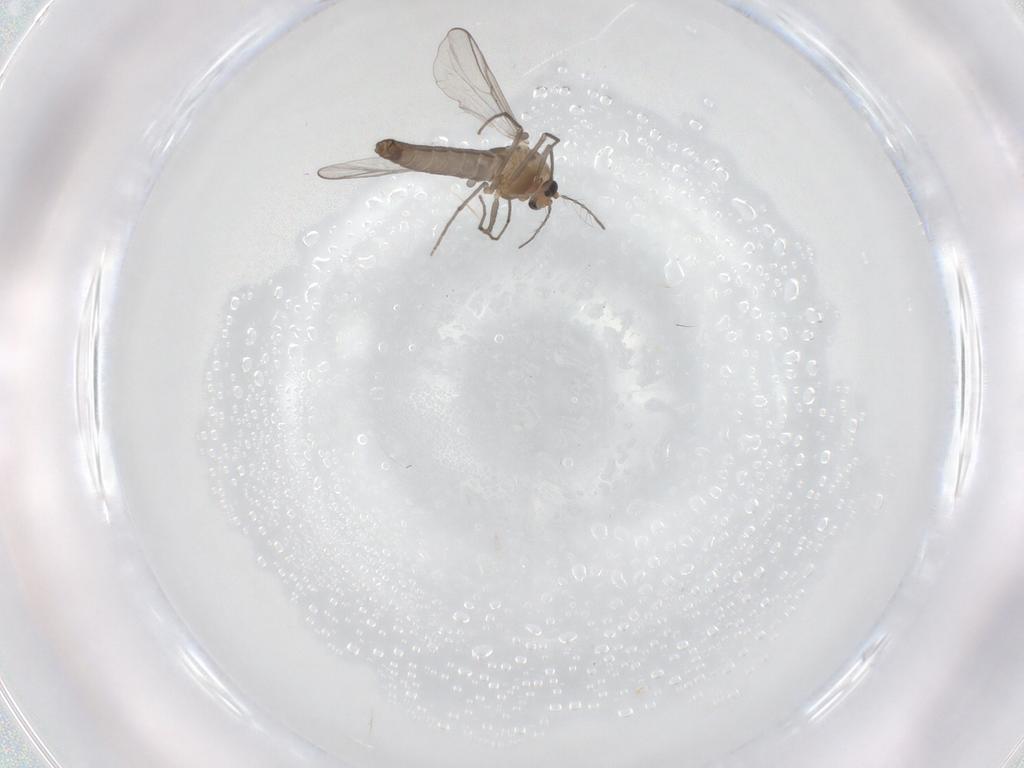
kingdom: Animalia
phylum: Arthropoda
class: Insecta
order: Diptera
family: Chironomidae
